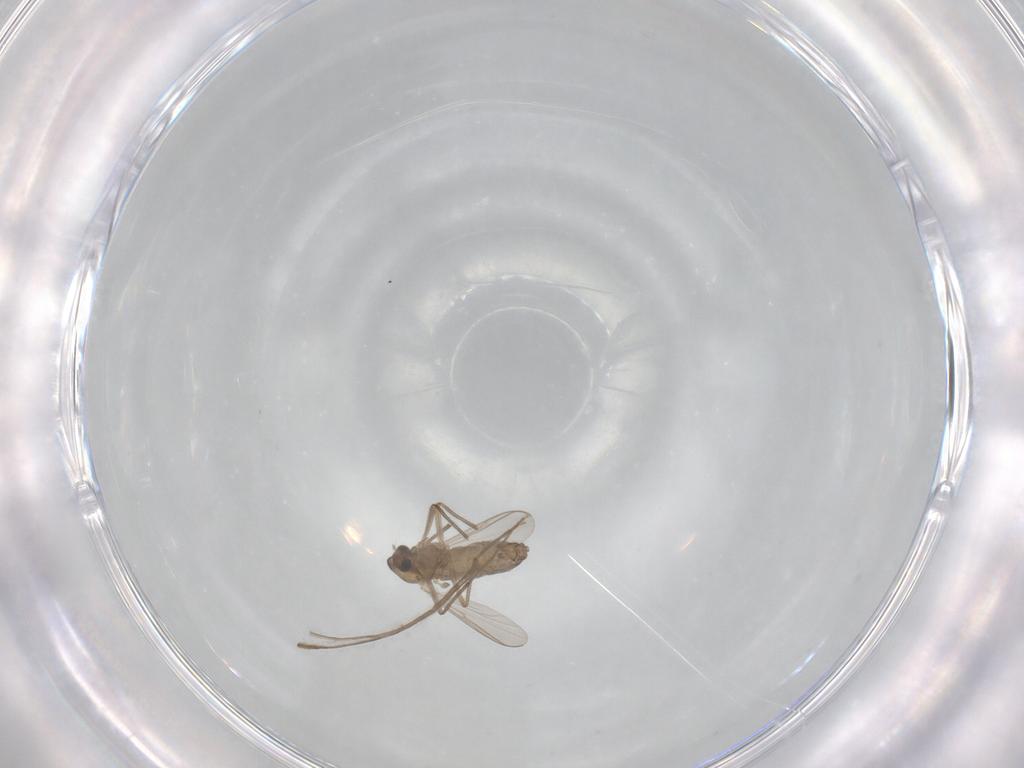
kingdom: Animalia
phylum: Arthropoda
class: Insecta
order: Diptera
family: Chironomidae
